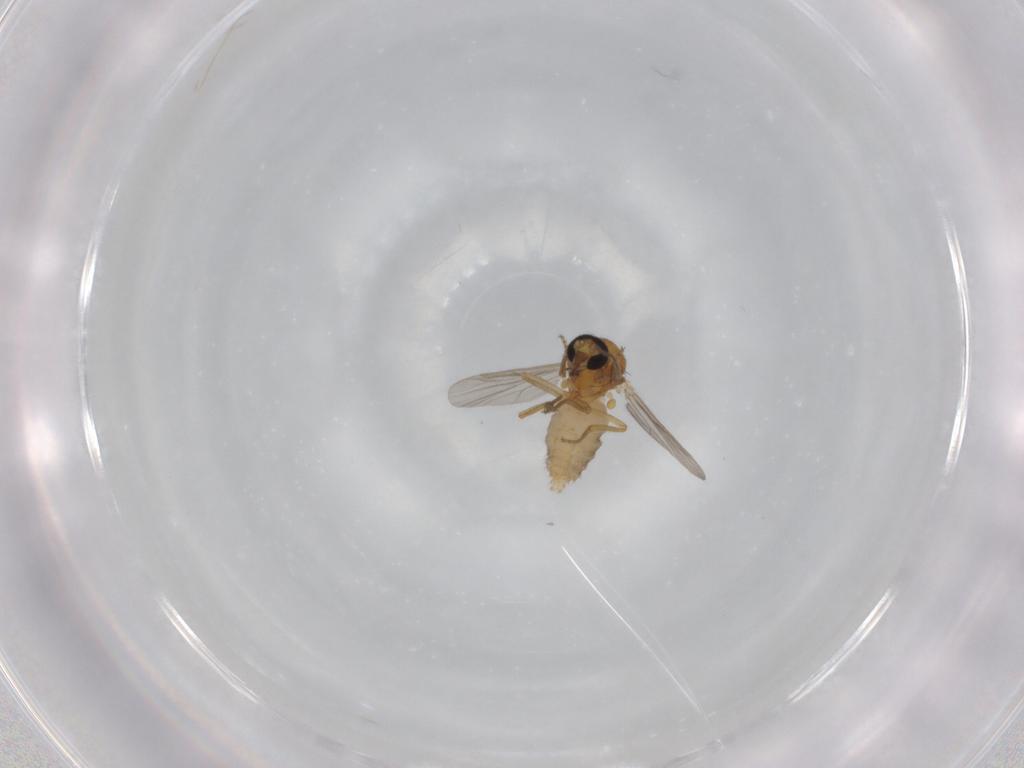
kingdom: Animalia
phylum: Arthropoda
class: Insecta
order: Diptera
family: Ceratopogonidae
